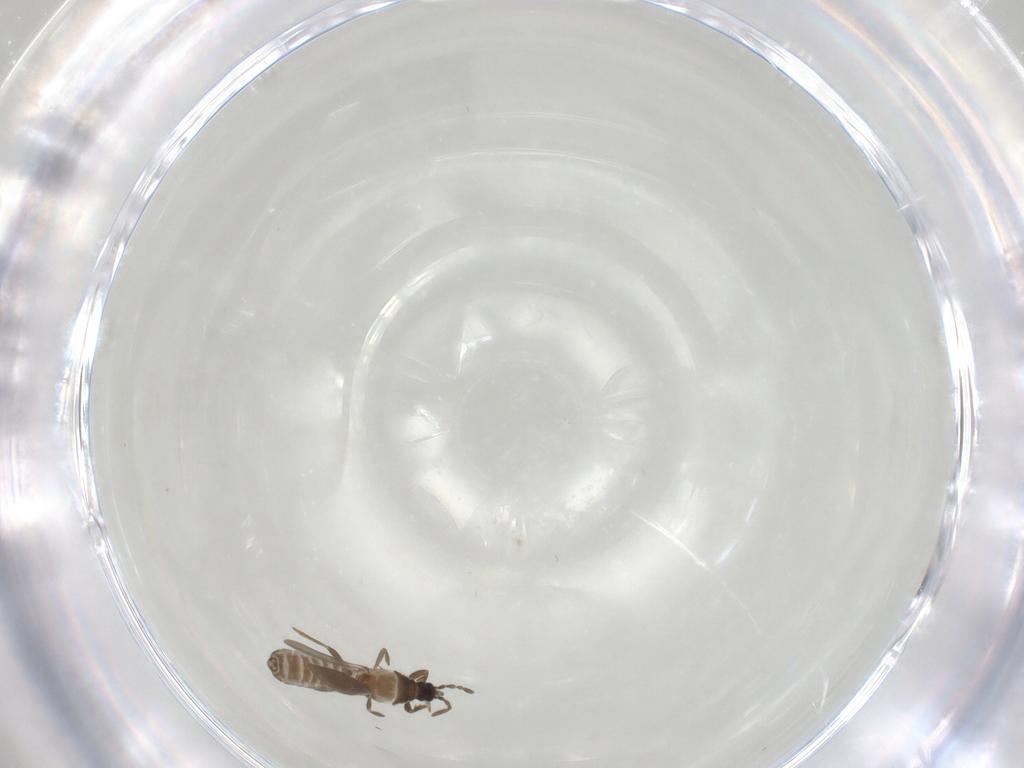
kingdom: Animalia
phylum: Arthropoda
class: Insecta
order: Hemiptera
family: Enicocephalidae
